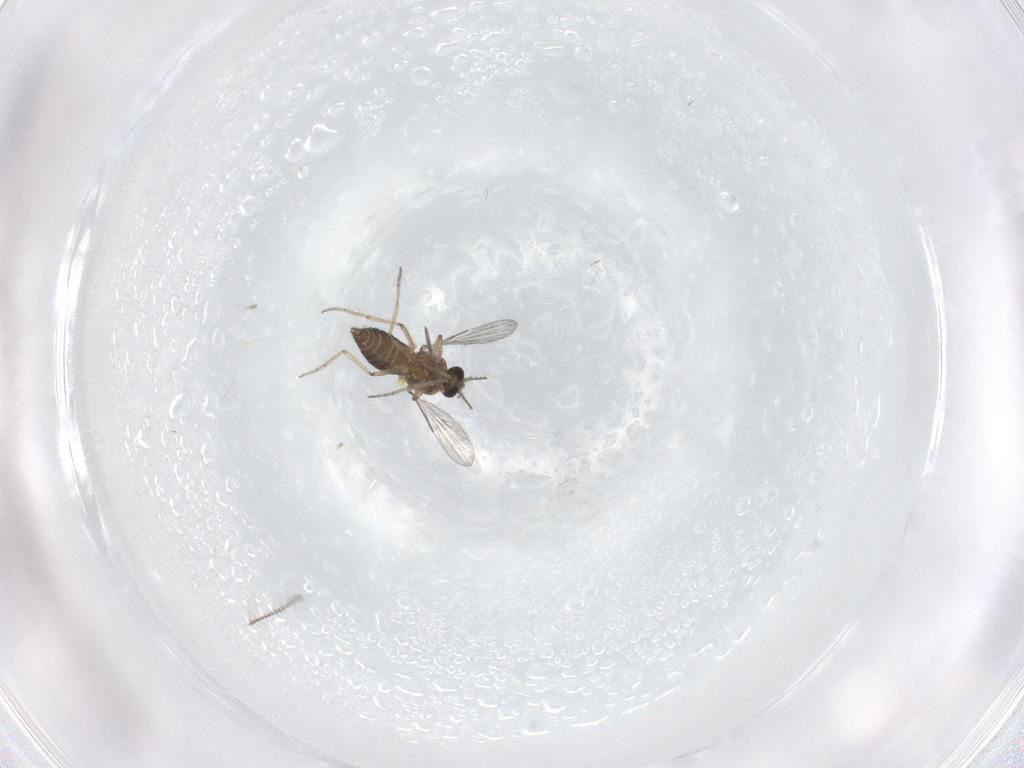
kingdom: Animalia
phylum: Arthropoda
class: Insecta
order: Diptera
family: Ceratopogonidae
